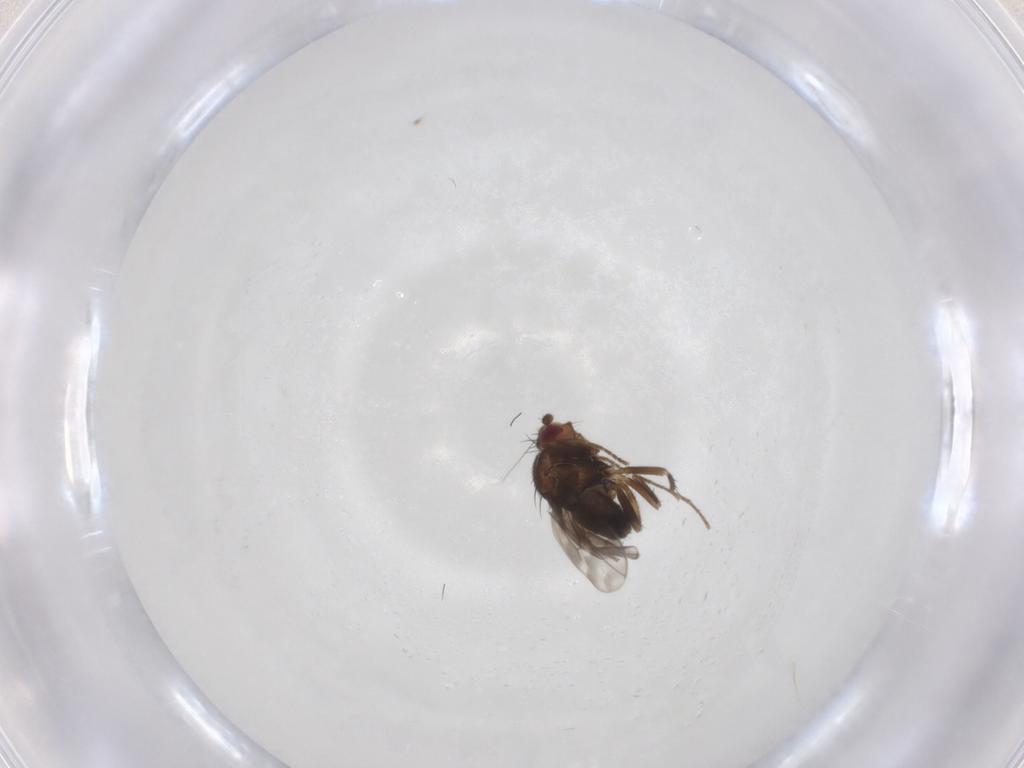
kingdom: Animalia
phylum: Arthropoda
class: Insecta
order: Diptera
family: Sphaeroceridae
